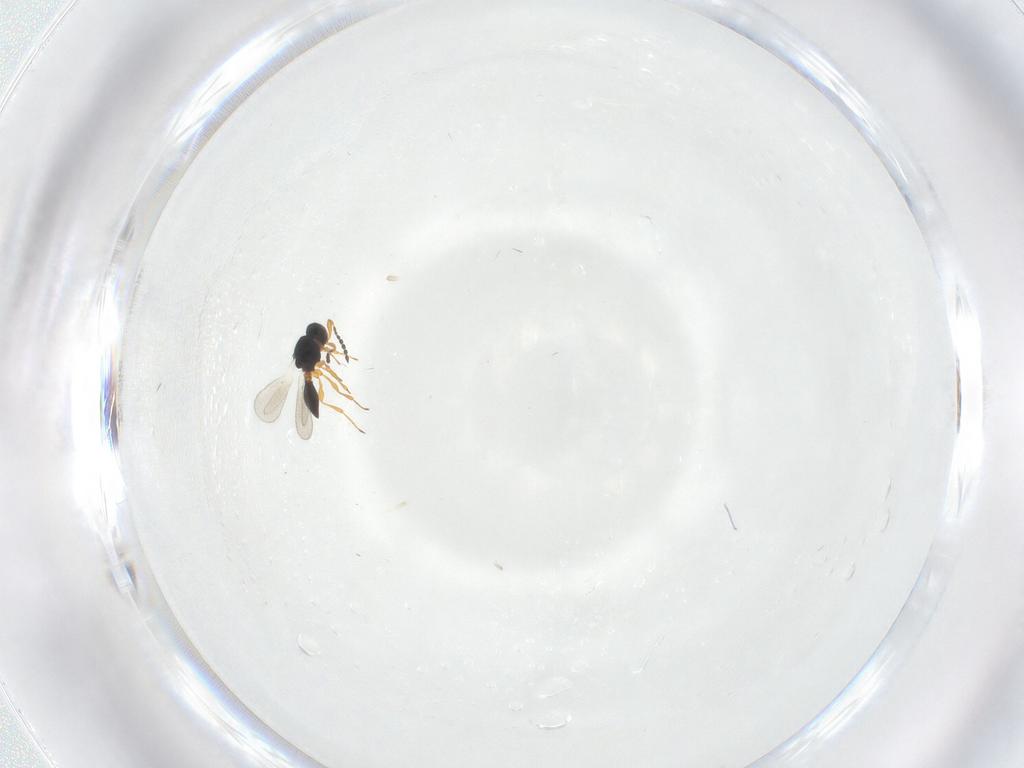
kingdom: Animalia
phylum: Arthropoda
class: Insecta
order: Hymenoptera
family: Platygastridae
